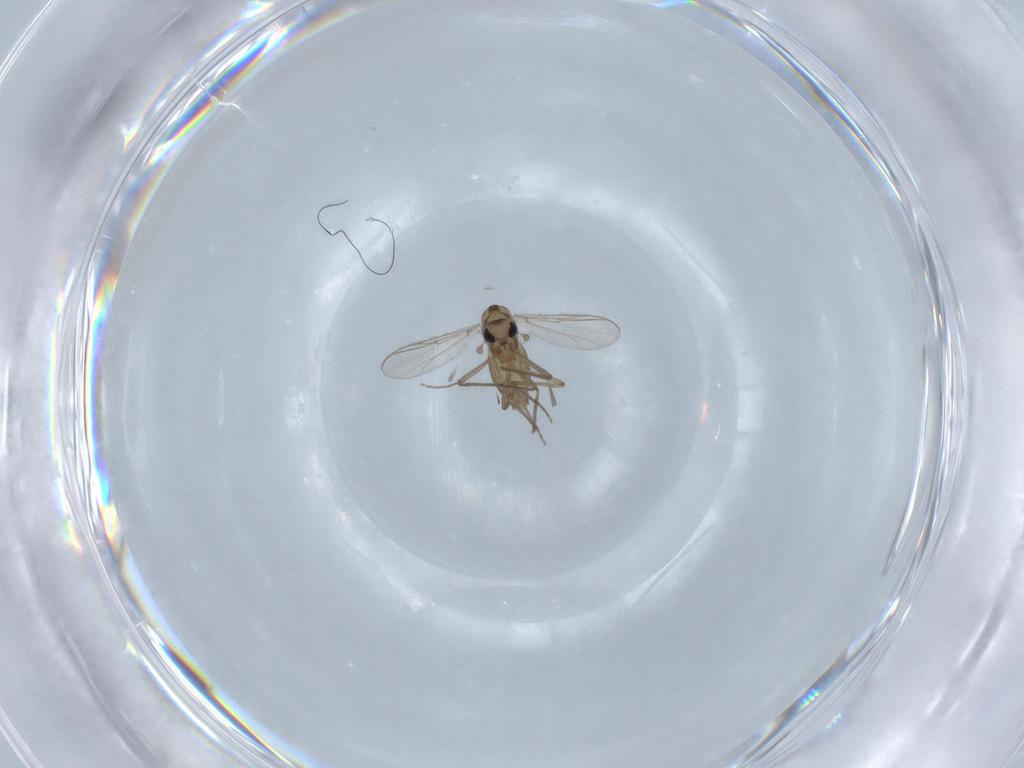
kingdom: Animalia
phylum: Arthropoda
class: Insecta
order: Diptera
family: Chironomidae
